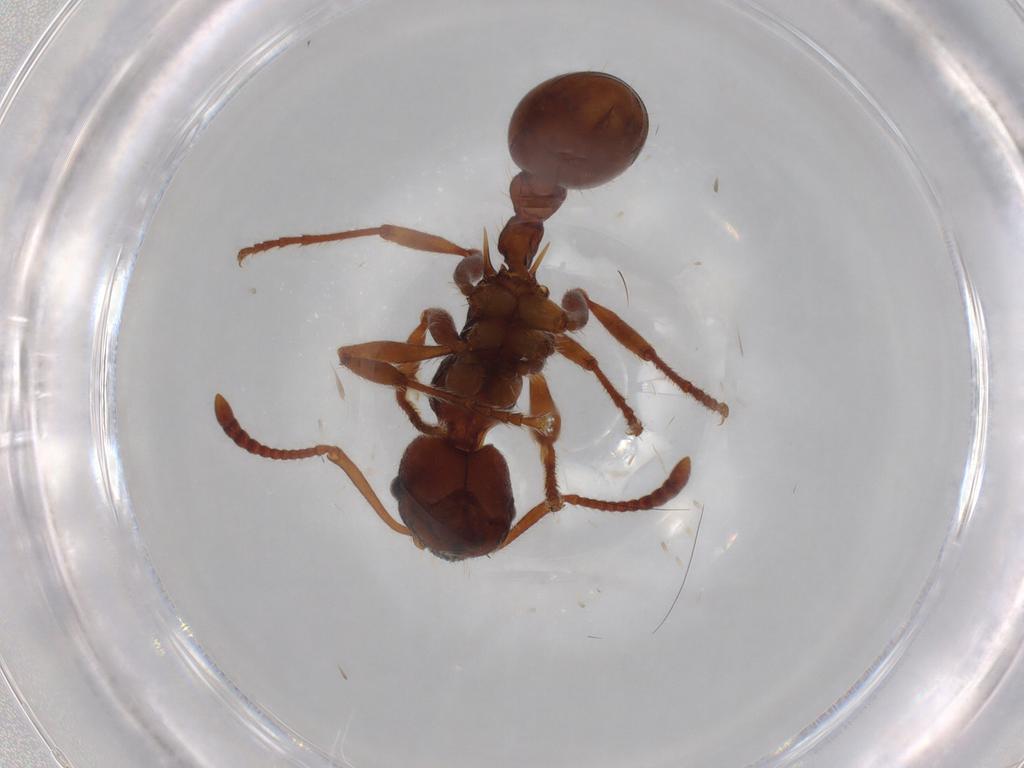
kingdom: Animalia
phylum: Arthropoda
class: Insecta
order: Hymenoptera
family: Formicidae
